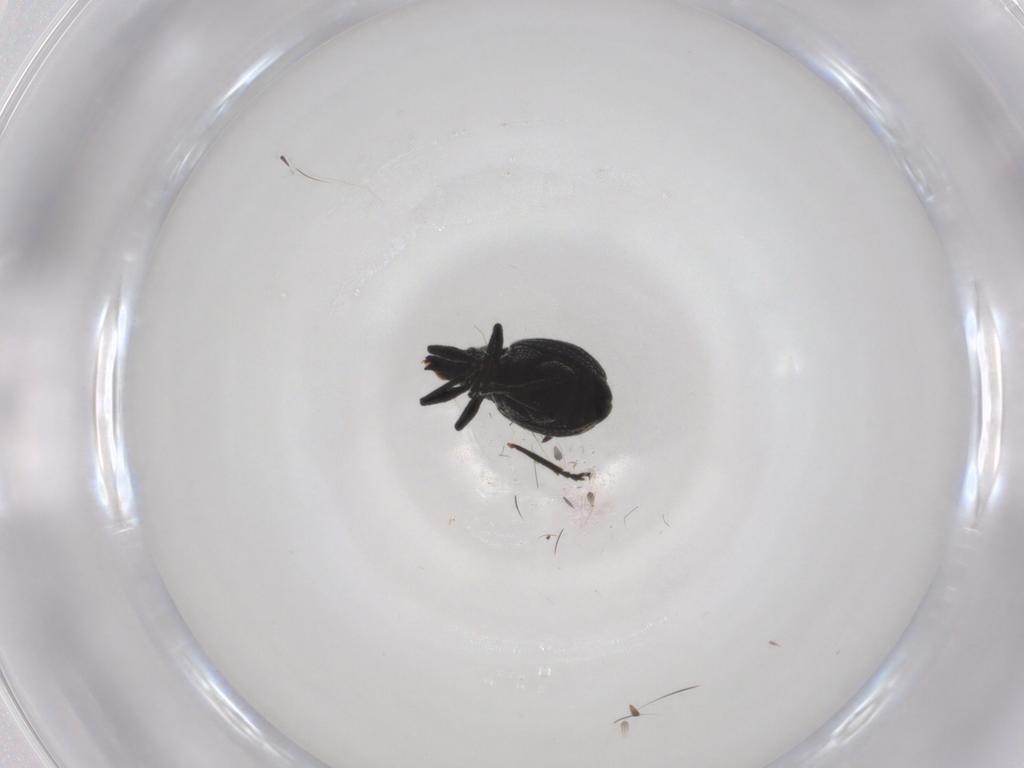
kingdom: Animalia
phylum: Arthropoda
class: Insecta
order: Coleoptera
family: Brentidae
